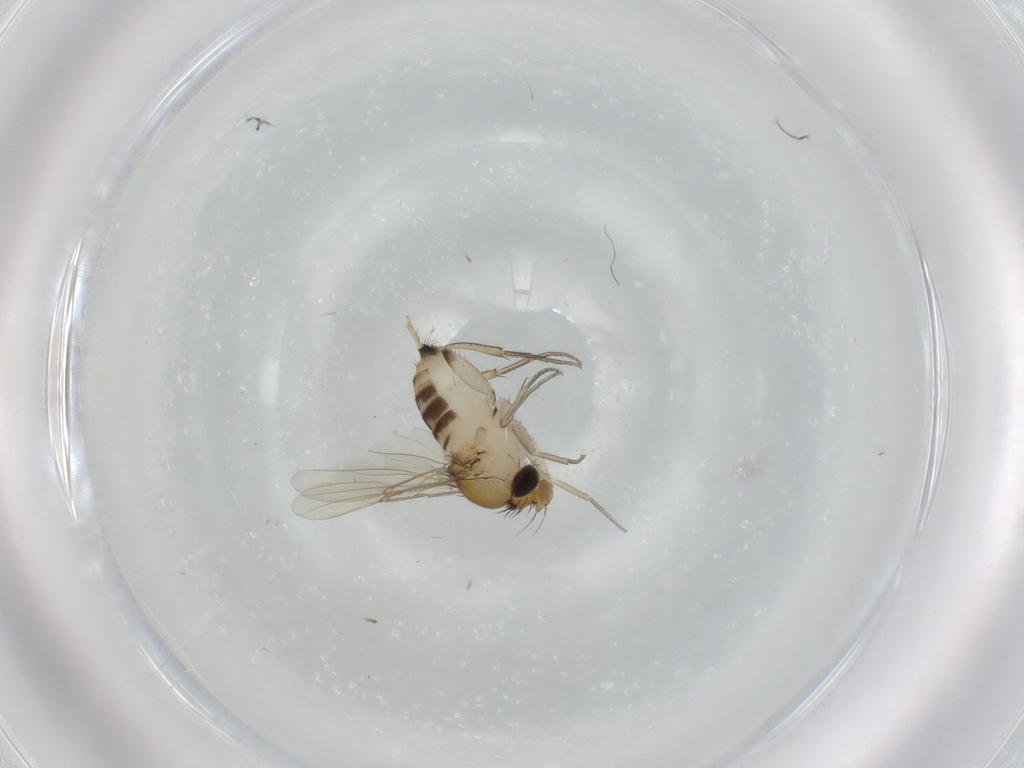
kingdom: Animalia
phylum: Arthropoda
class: Insecta
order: Diptera
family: Phoridae
